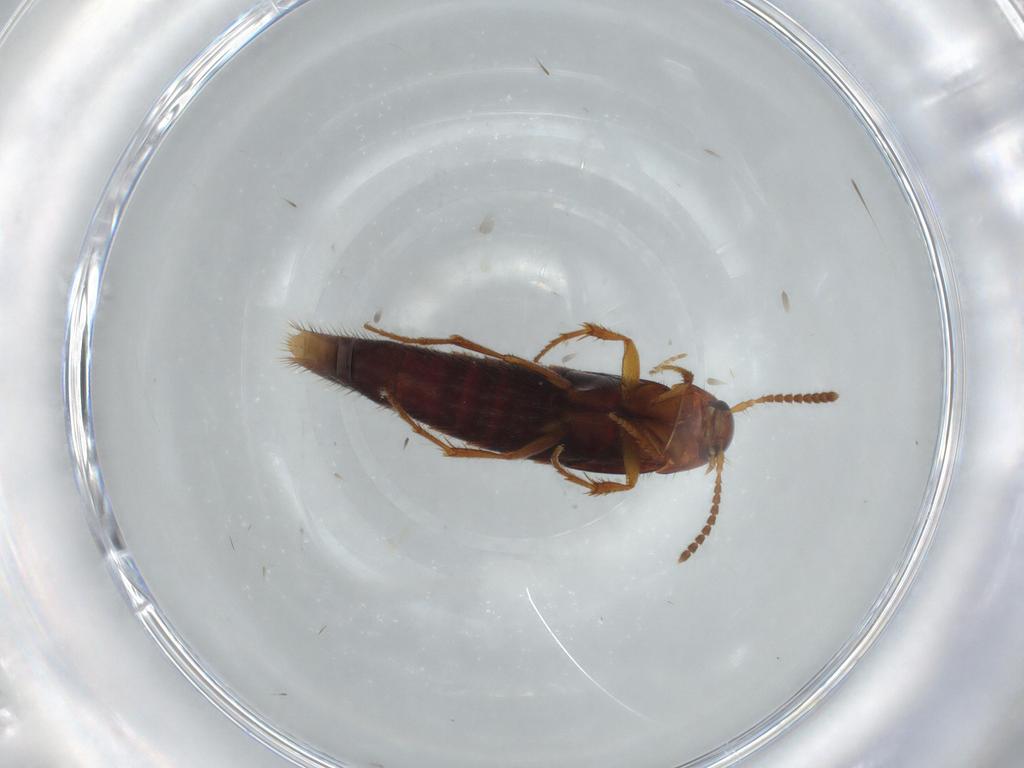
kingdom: Animalia
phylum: Arthropoda
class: Insecta
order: Coleoptera
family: Staphylinidae
